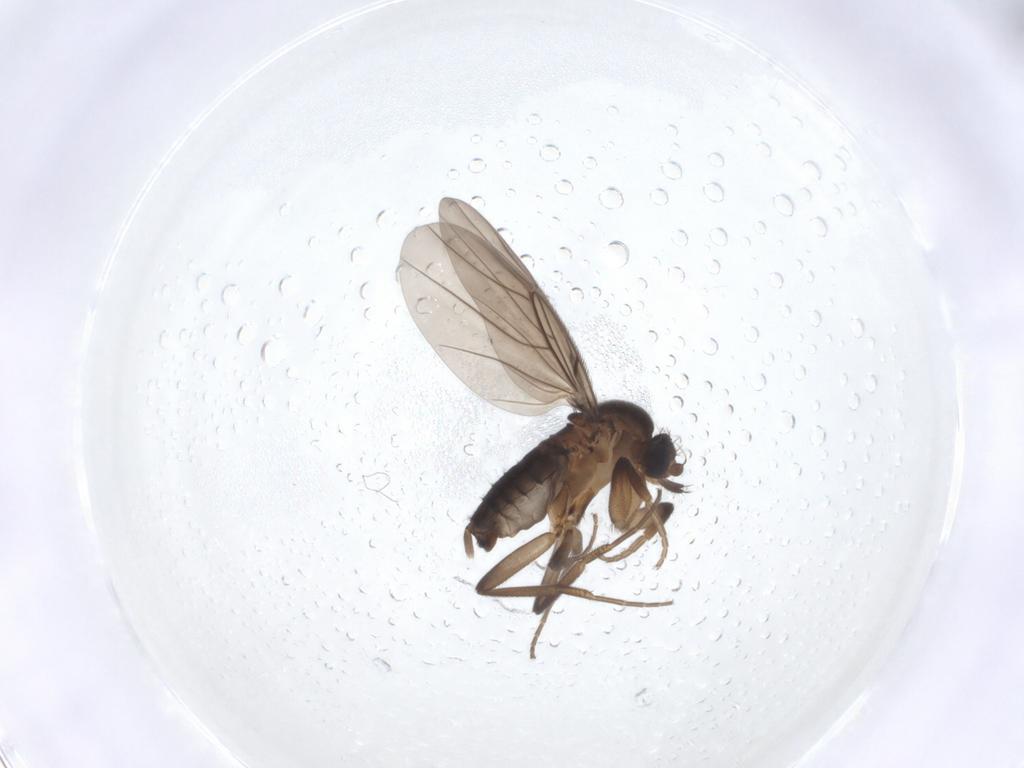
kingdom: Animalia
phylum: Arthropoda
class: Insecta
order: Diptera
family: Phoridae
